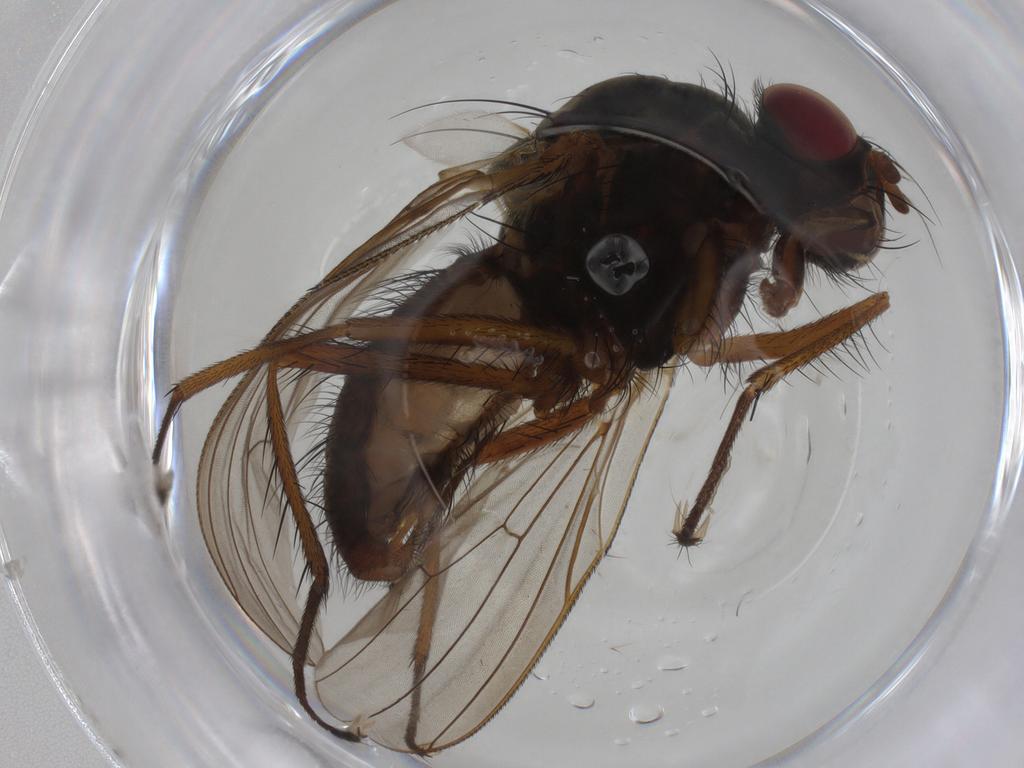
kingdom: Animalia
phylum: Arthropoda
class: Insecta
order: Diptera
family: Anthomyiidae
